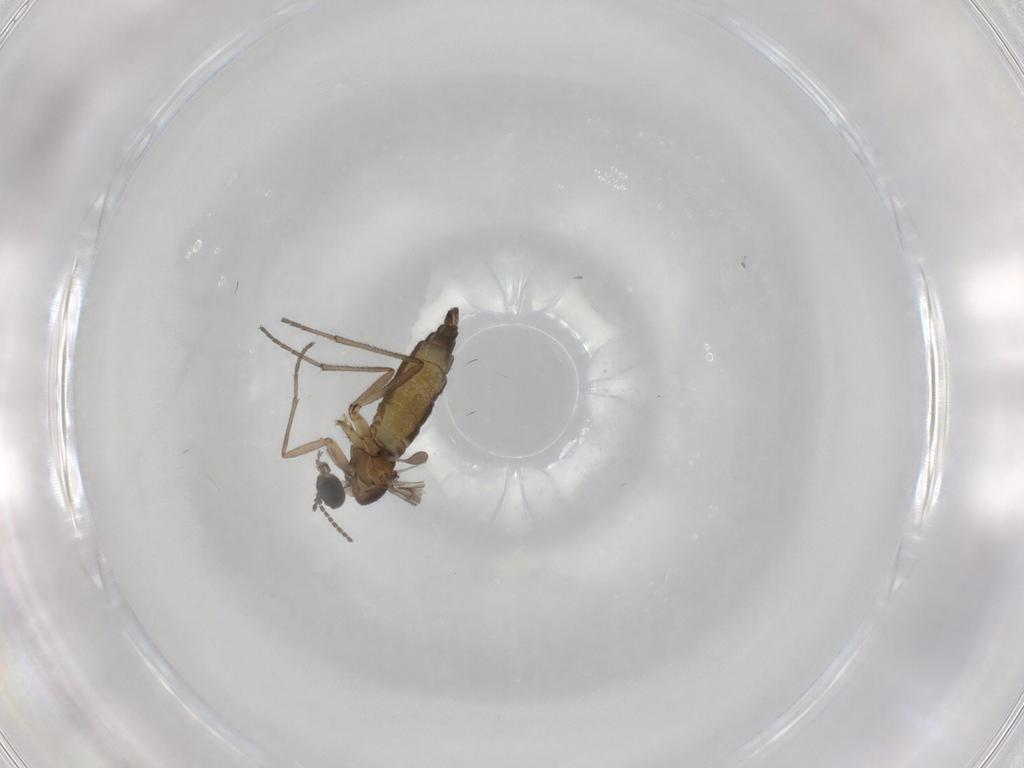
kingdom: Animalia
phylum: Arthropoda
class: Insecta
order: Diptera
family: Sciaridae
